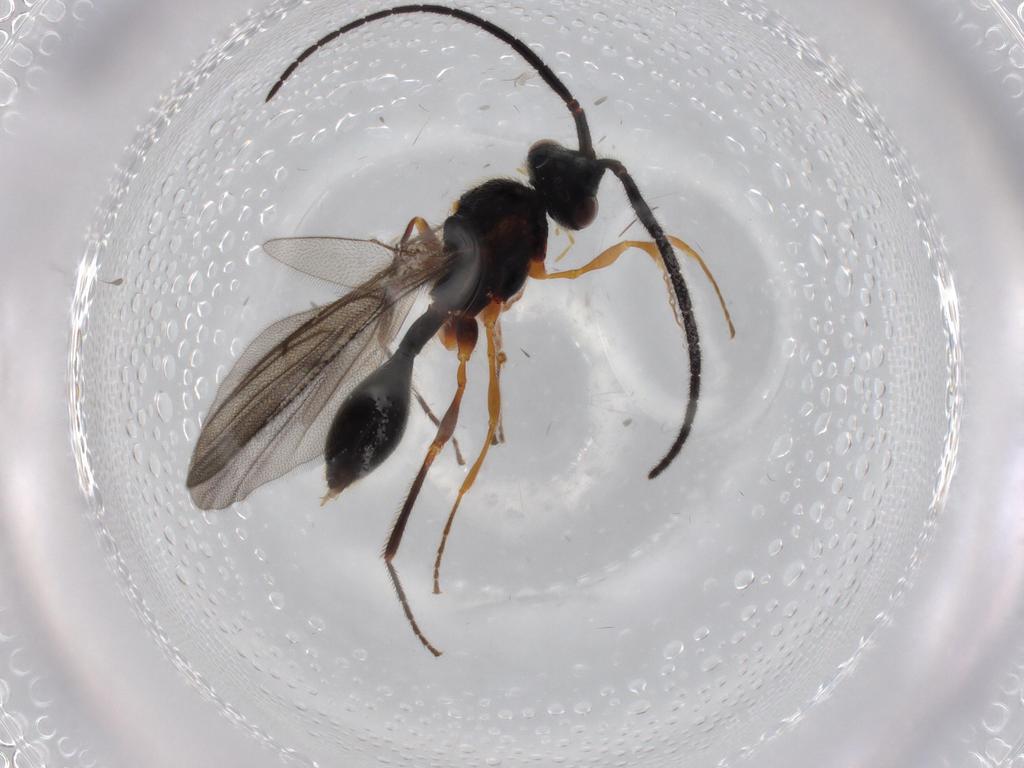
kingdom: Animalia
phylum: Arthropoda
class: Insecta
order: Hymenoptera
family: Diapriidae
